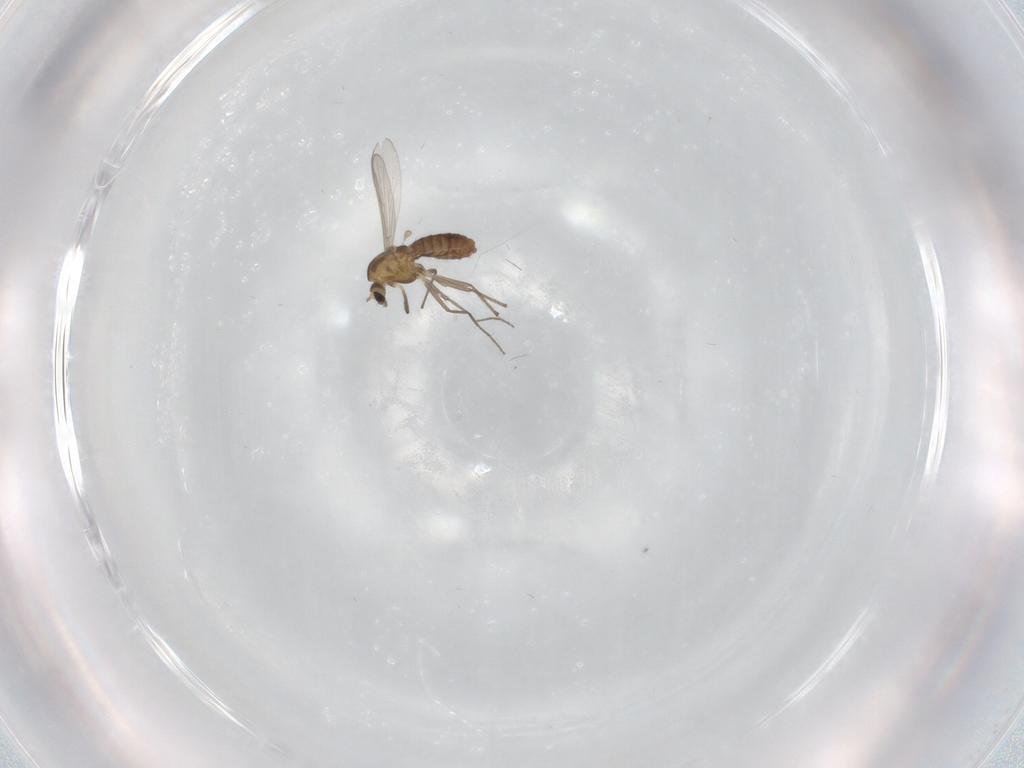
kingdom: Animalia
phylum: Arthropoda
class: Insecta
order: Diptera
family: Chironomidae
